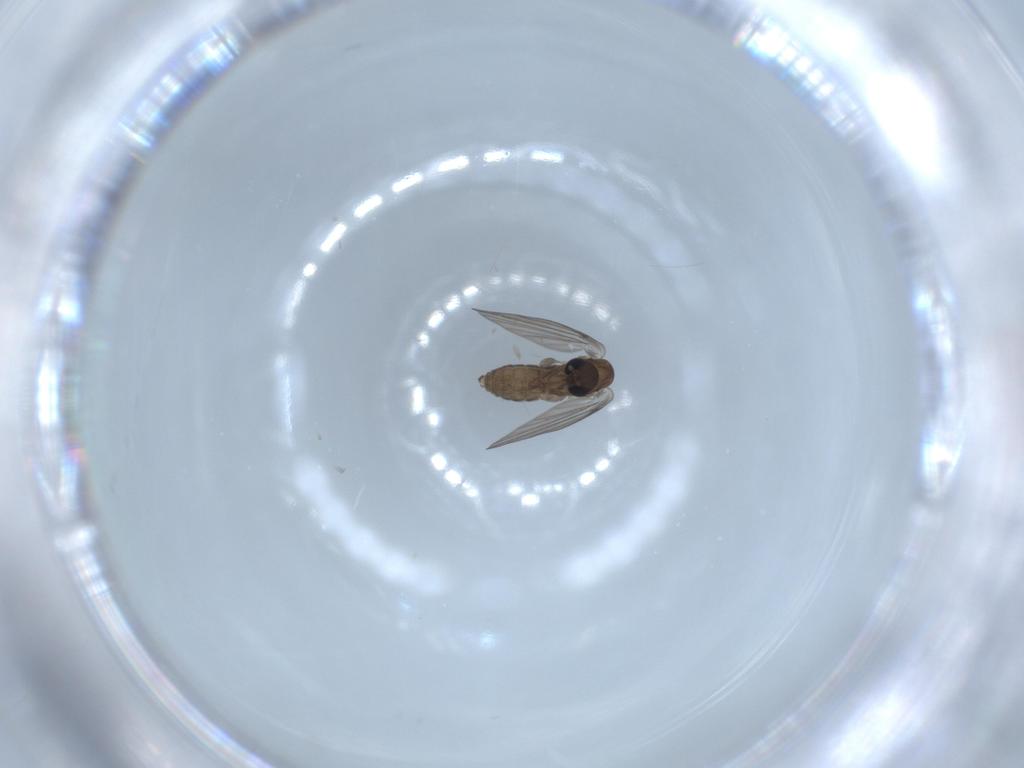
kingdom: Animalia
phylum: Arthropoda
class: Insecta
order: Diptera
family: Psychodidae
